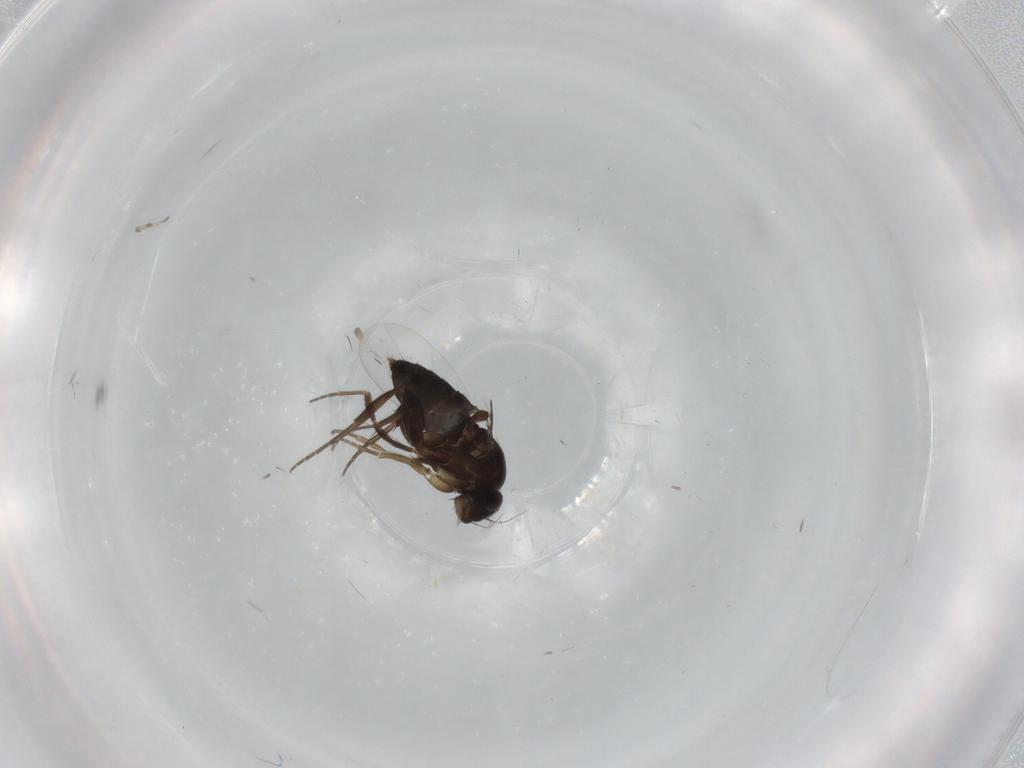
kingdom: Animalia
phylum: Arthropoda
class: Insecta
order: Diptera
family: Phoridae
